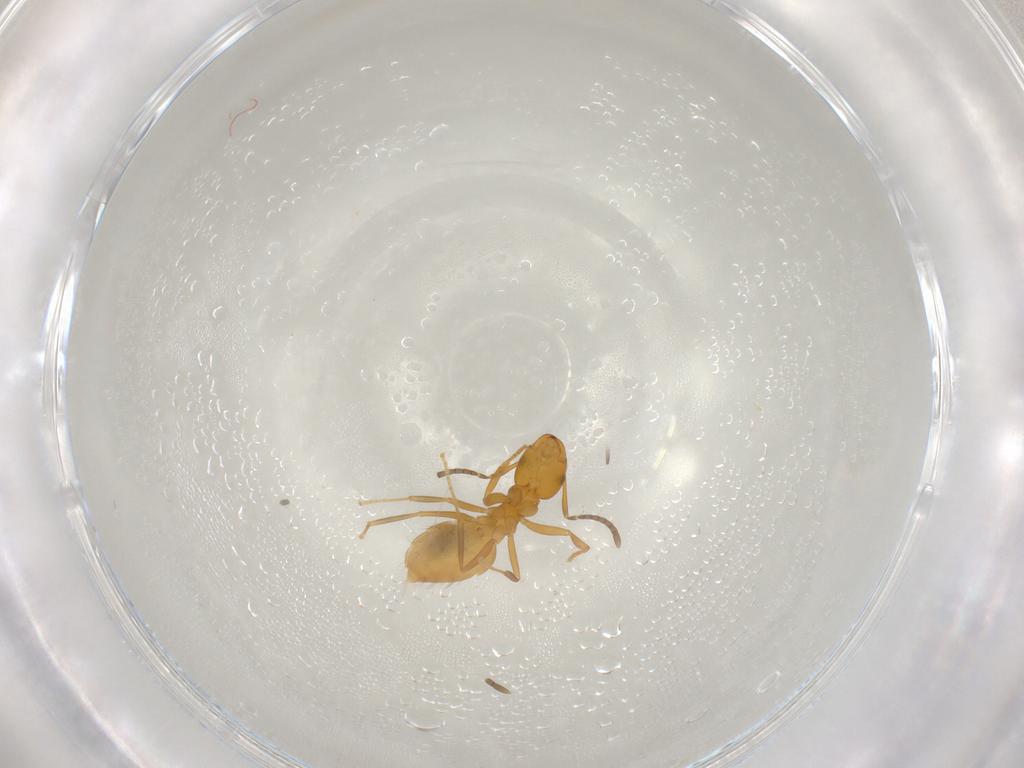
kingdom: Animalia
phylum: Arthropoda
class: Insecta
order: Hymenoptera
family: Formicidae
